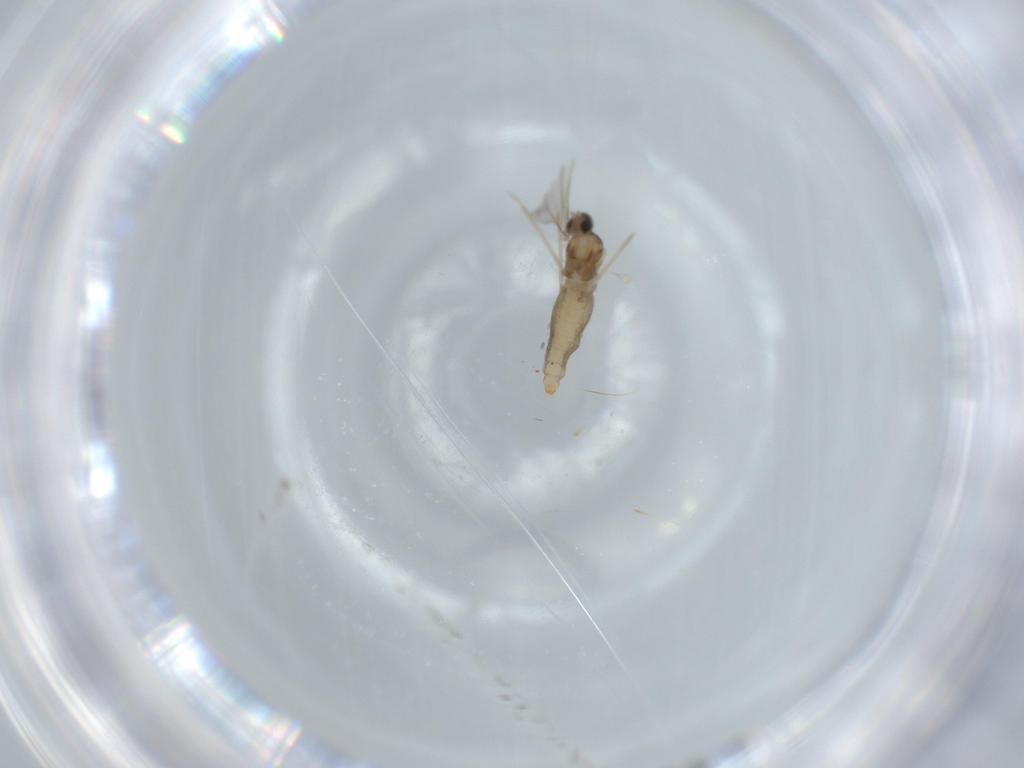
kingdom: Animalia
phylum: Arthropoda
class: Insecta
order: Diptera
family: Cecidomyiidae
